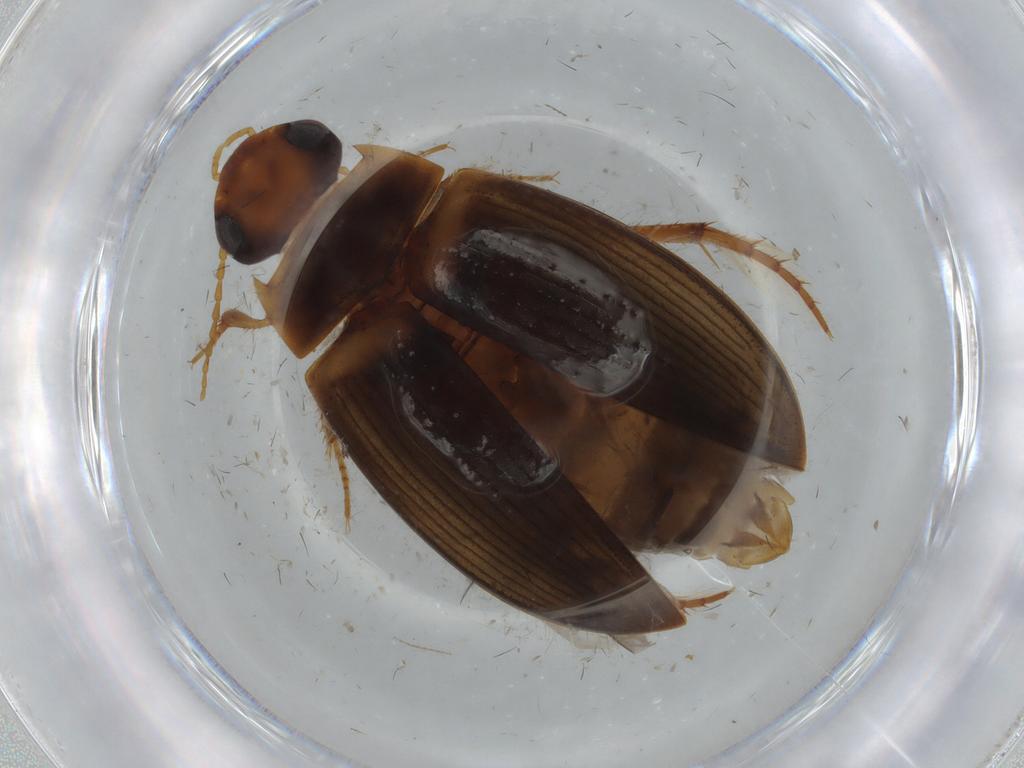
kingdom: Animalia
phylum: Arthropoda
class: Insecta
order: Coleoptera
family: Dytiscidae
